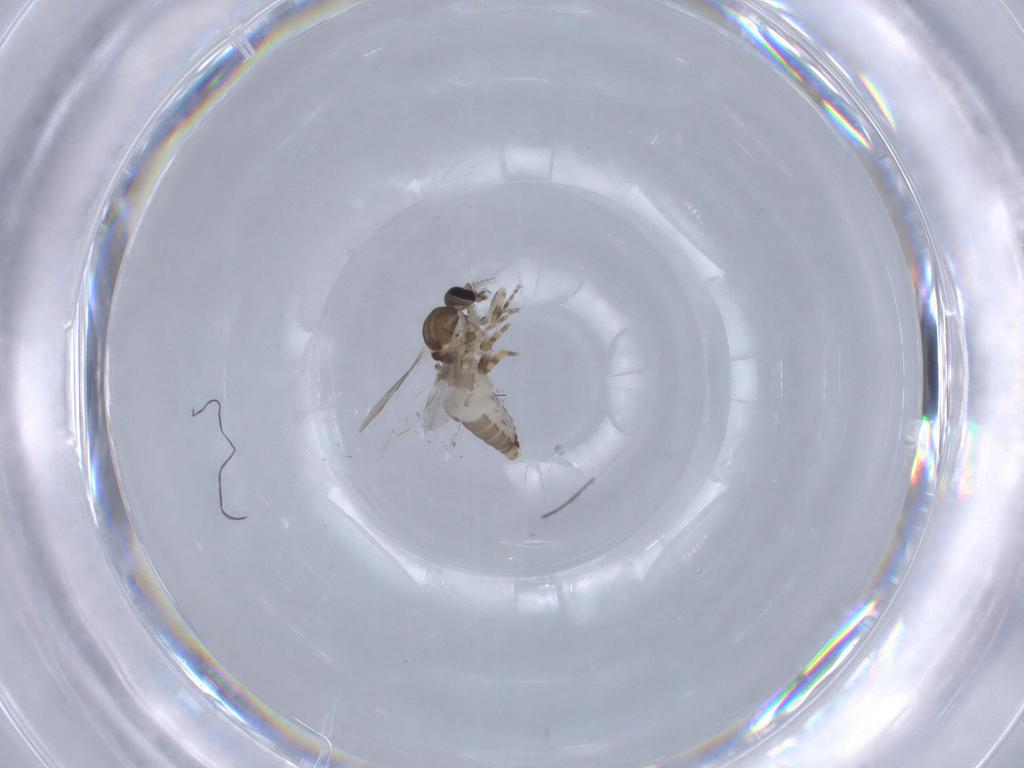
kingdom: Animalia
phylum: Arthropoda
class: Insecta
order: Diptera
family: Ceratopogonidae
